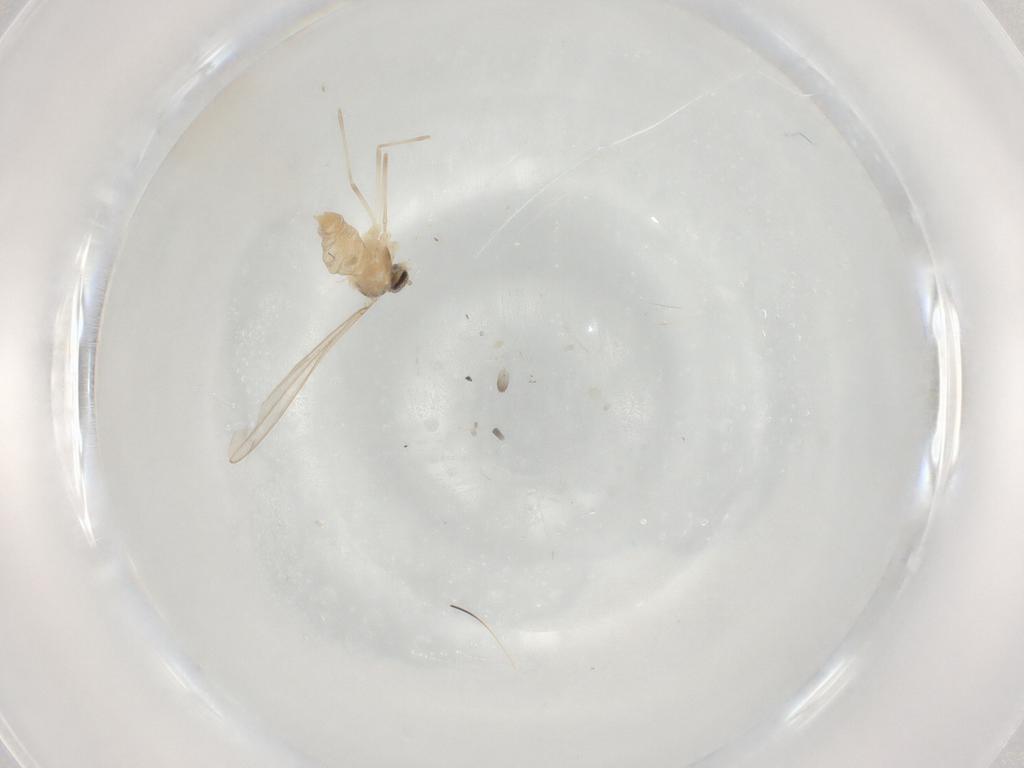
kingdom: Animalia
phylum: Arthropoda
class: Insecta
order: Diptera
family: Cecidomyiidae
